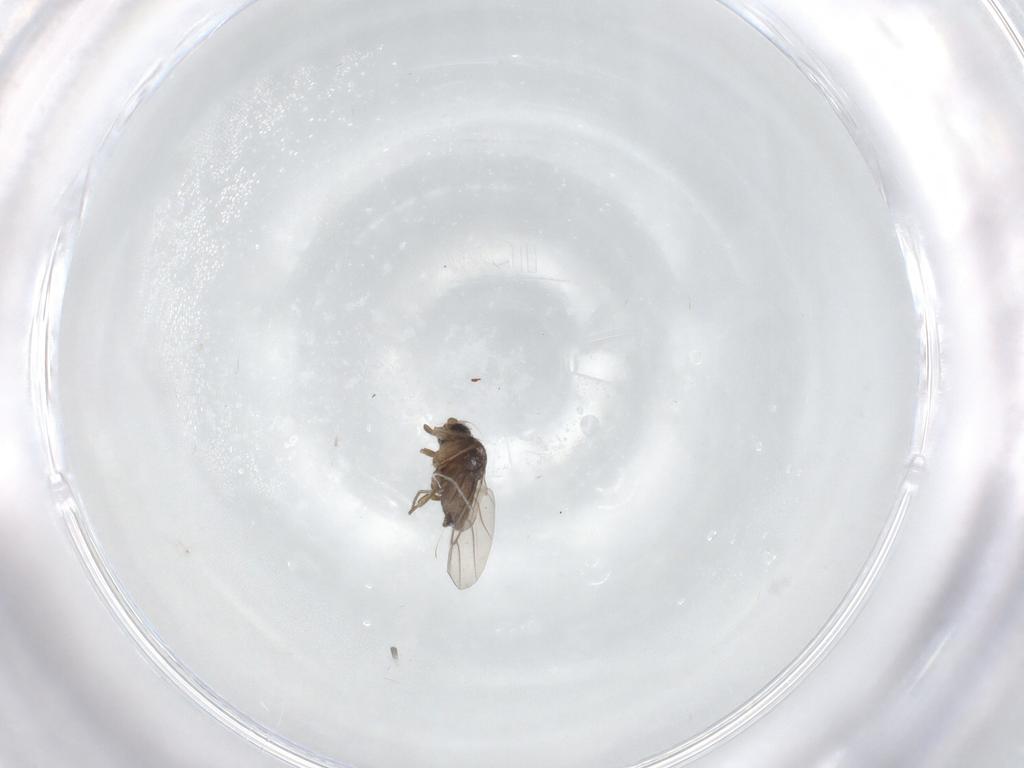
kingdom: Animalia
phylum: Arthropoda
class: Insecta
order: Diptera
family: Phoridae
